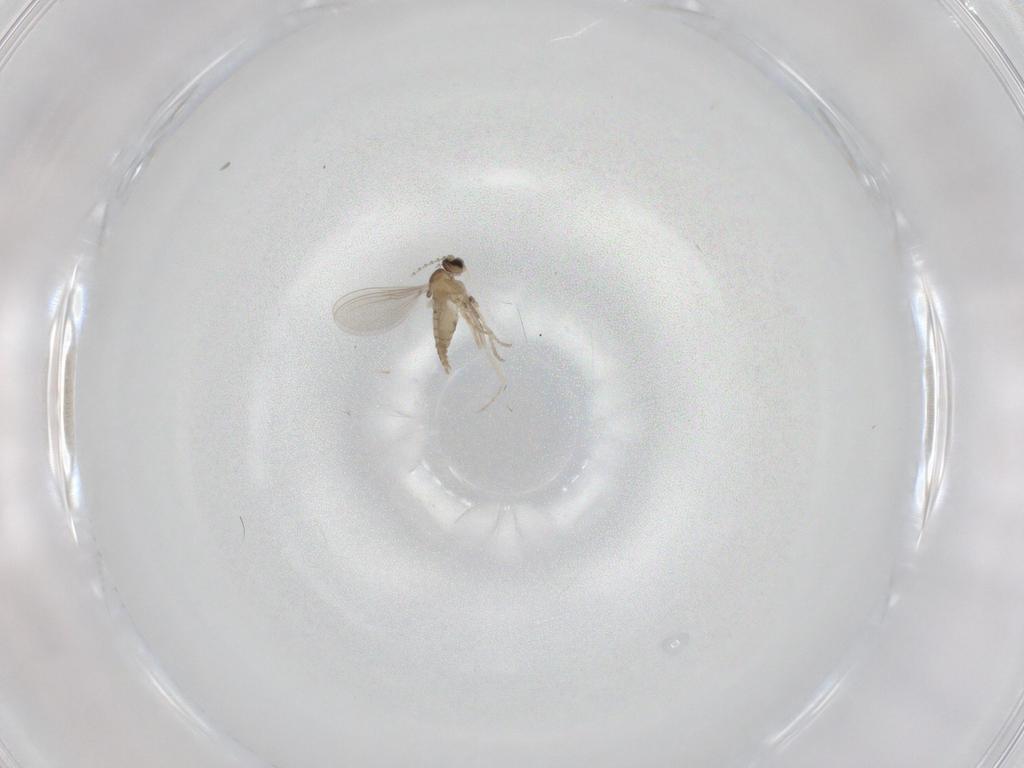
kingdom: Animalia
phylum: Arthropoda
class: Insecta
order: Diptera
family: Cecidomyiidae
